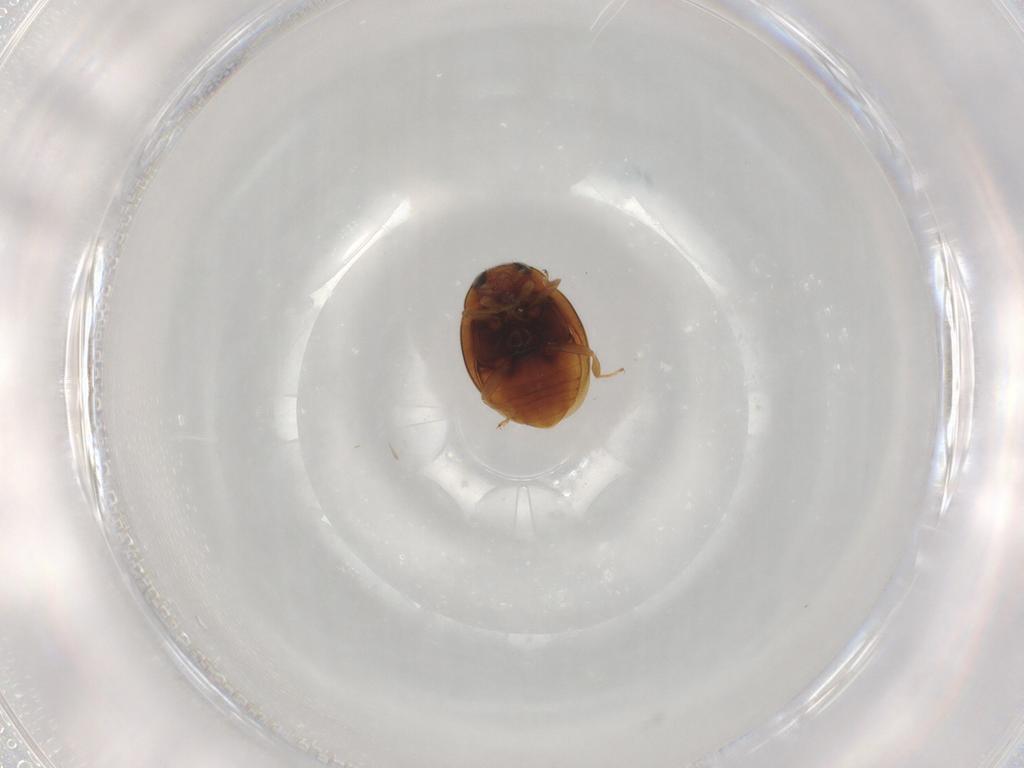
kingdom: Animalia
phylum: Arthropoda
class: Insecta
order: Coleoptera
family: Coccinellidae
